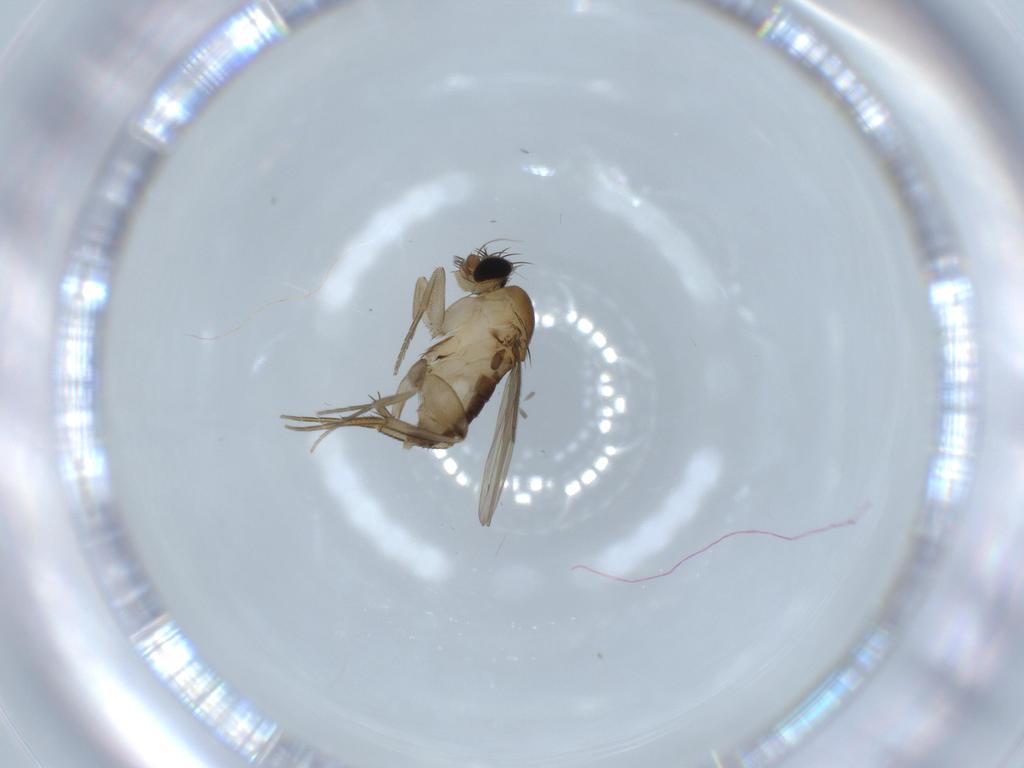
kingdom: Animalia
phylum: Arthropoda
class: Insecta
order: Diptera
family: Phoridae
